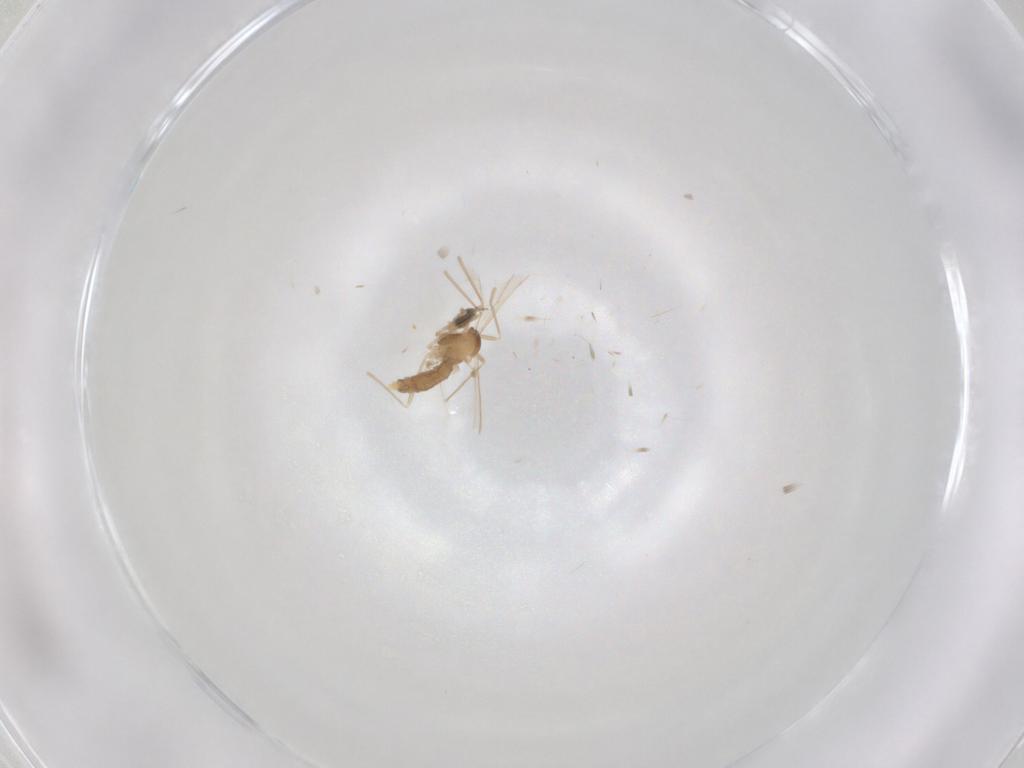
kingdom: Animalia
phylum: Arthropoda
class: Insecta
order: Diptera
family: Cecidomyiidae
